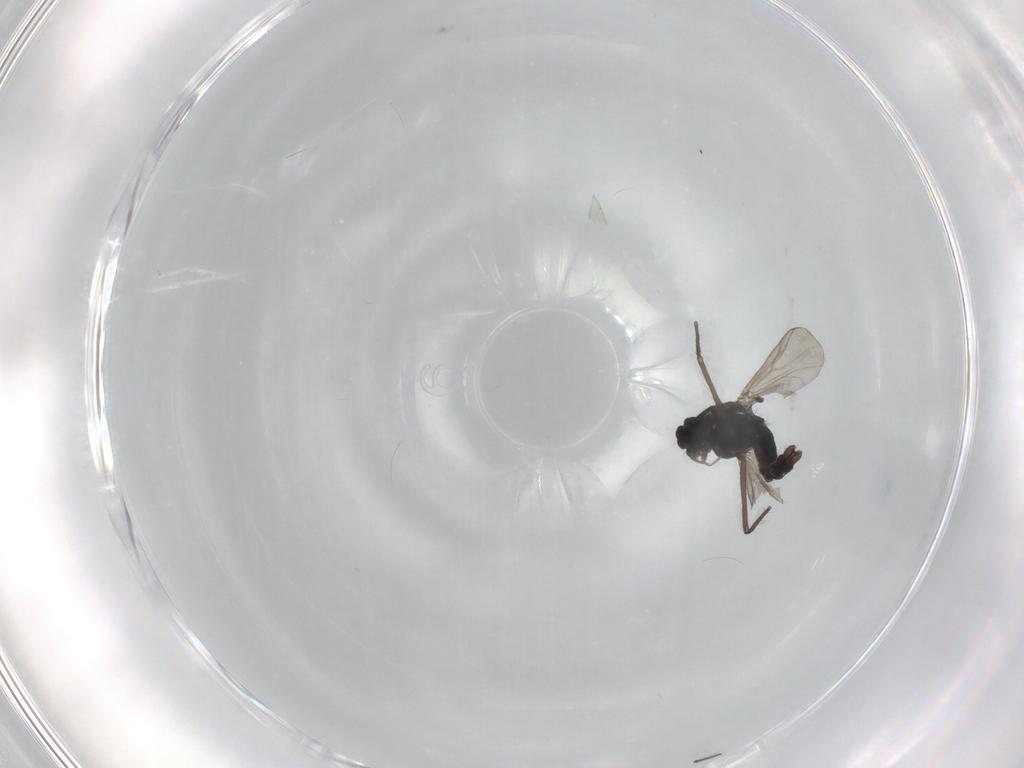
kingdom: Animalia
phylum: Arthropoda
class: Insecta
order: Diptera
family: Chironomidae
